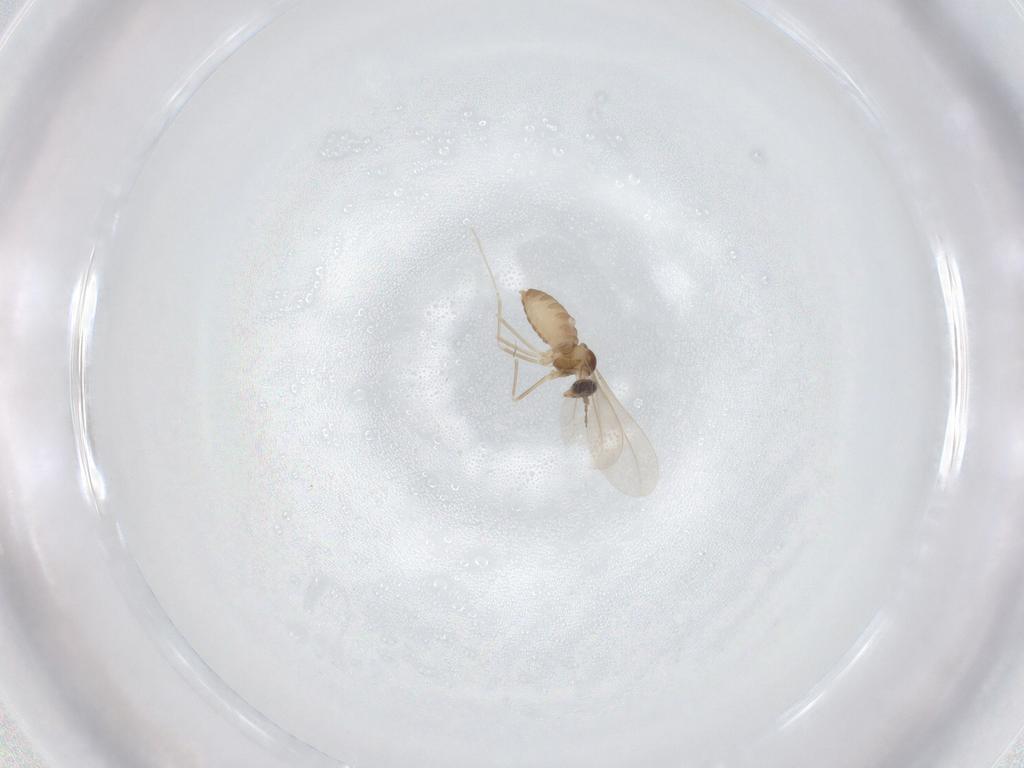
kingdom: Animalia
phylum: Arthropoda
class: Insecta
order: Diptera
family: Cecidomyiidae
